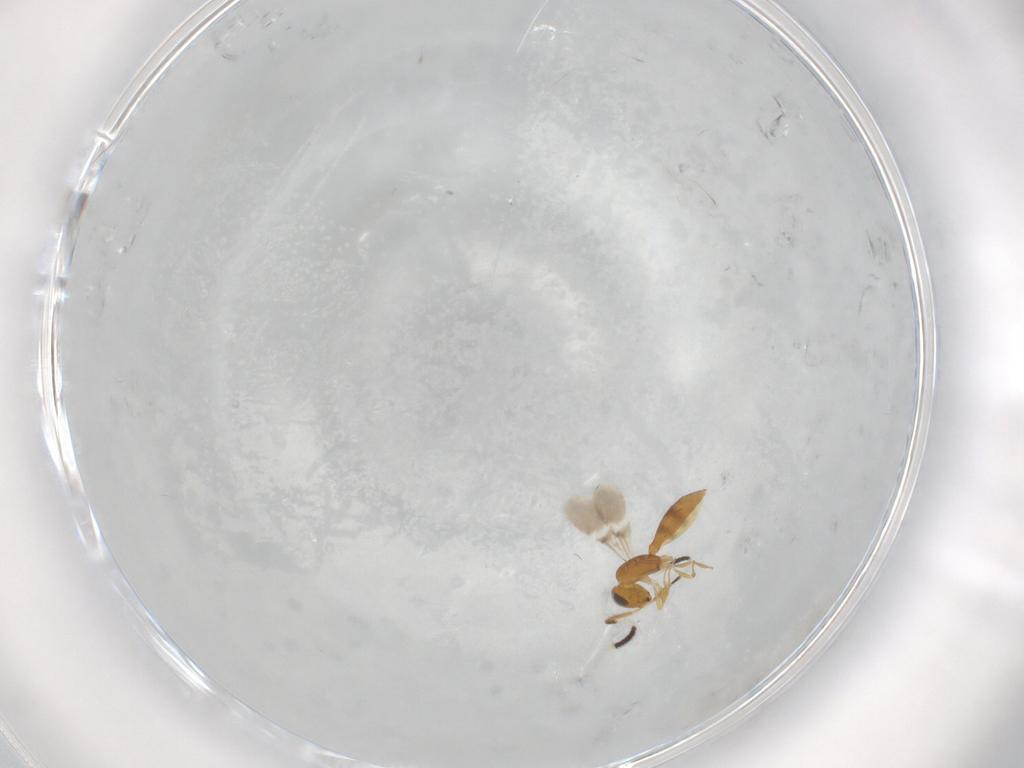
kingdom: Animalia
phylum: Arthropoda
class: Insecta
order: Hymenoptera
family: Scelionidae
